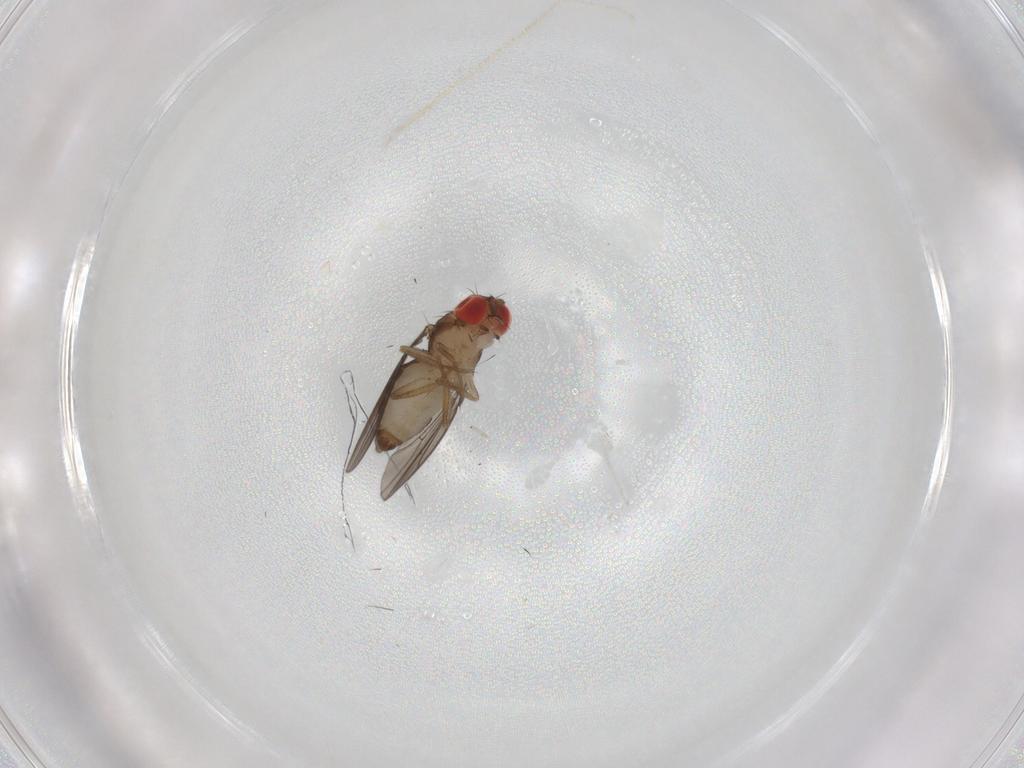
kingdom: Animalia
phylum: Arthropoda
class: Insecta
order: Diptera
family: Drosophilidae
